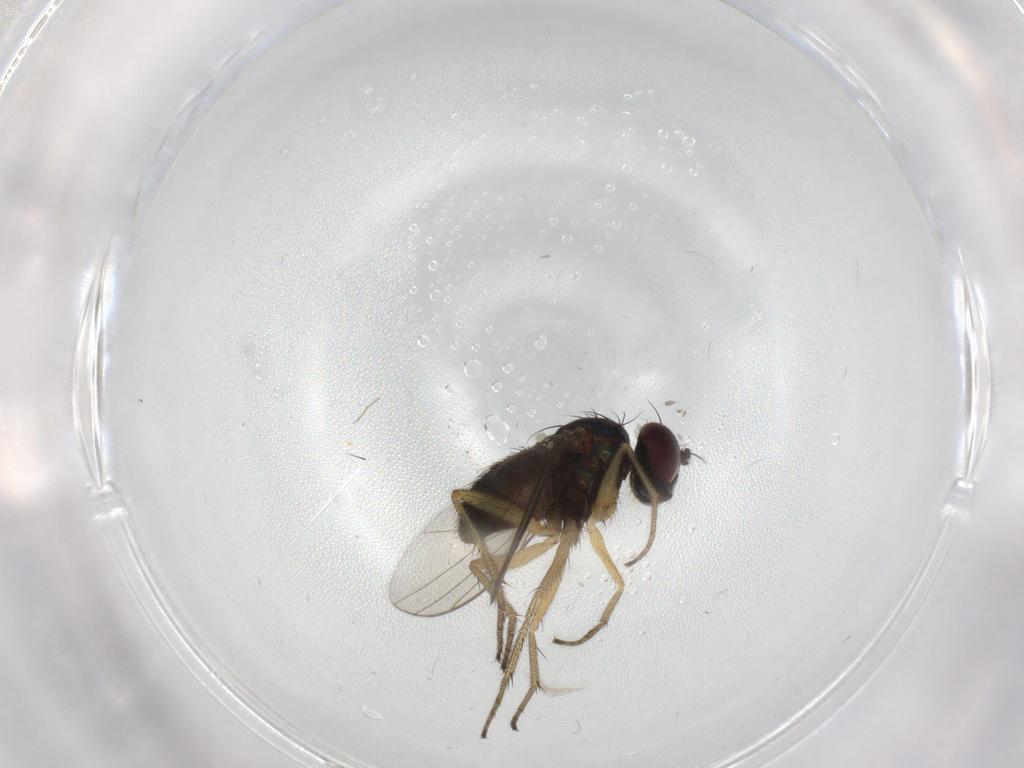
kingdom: Animalia
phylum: Arthropoda
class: Insecta
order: Diptera
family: Dolichopodidae
